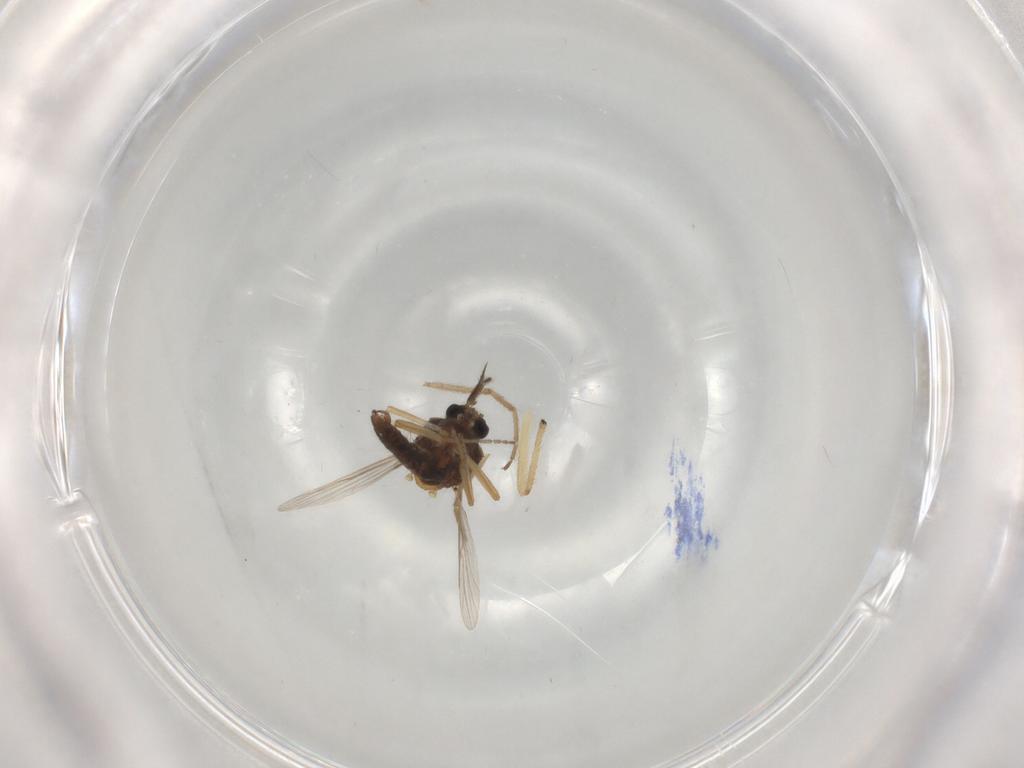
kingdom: Animalia
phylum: Arthropoda
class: Insecta
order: Diptera
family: Ceratopogonidae
